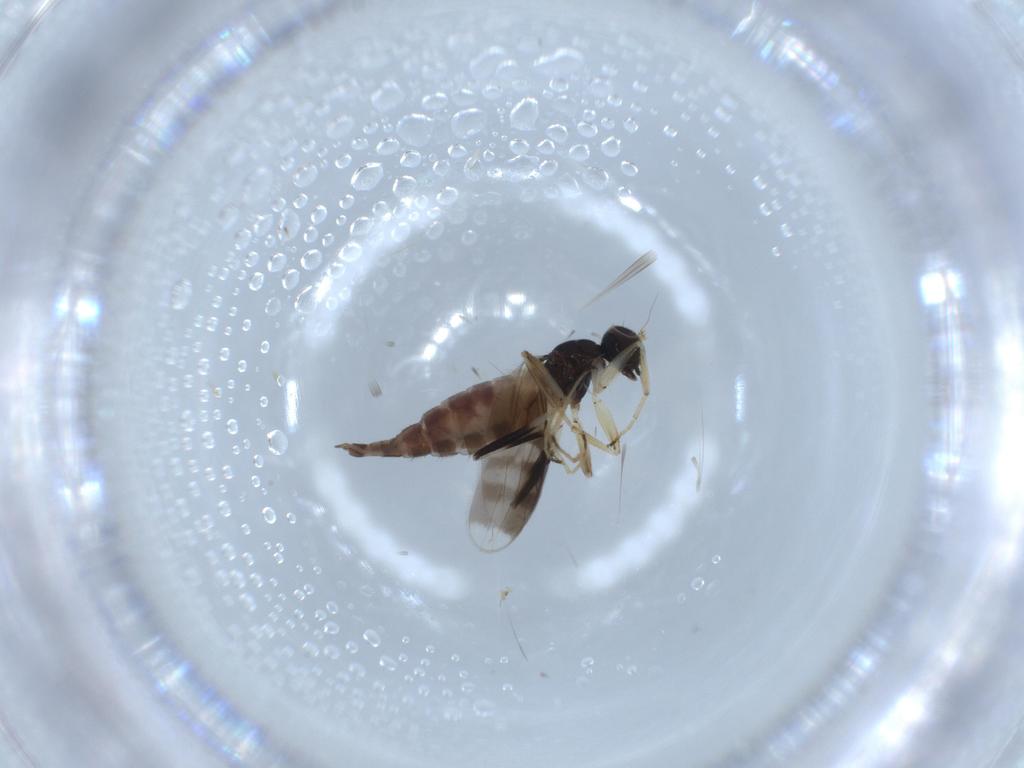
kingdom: Animalia
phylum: Arthropoda
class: Insecta
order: Diptera
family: Hybotidae
